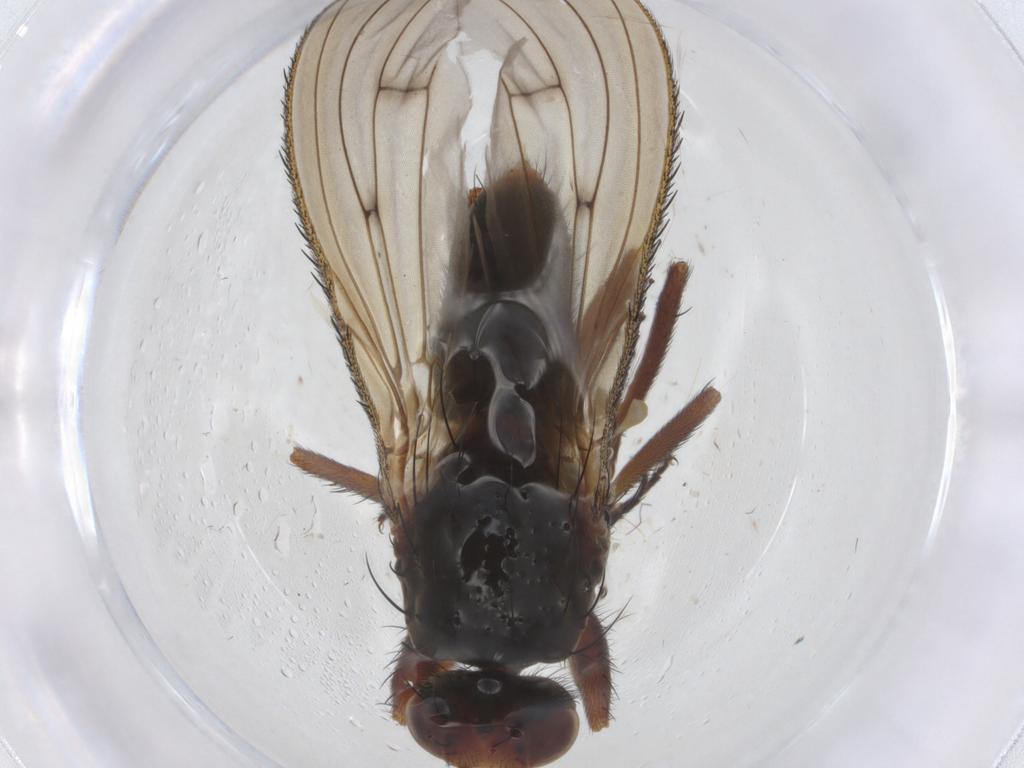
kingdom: Animalia
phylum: Arthropoda
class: Insecta
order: Diptera
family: Heleomyzidae
